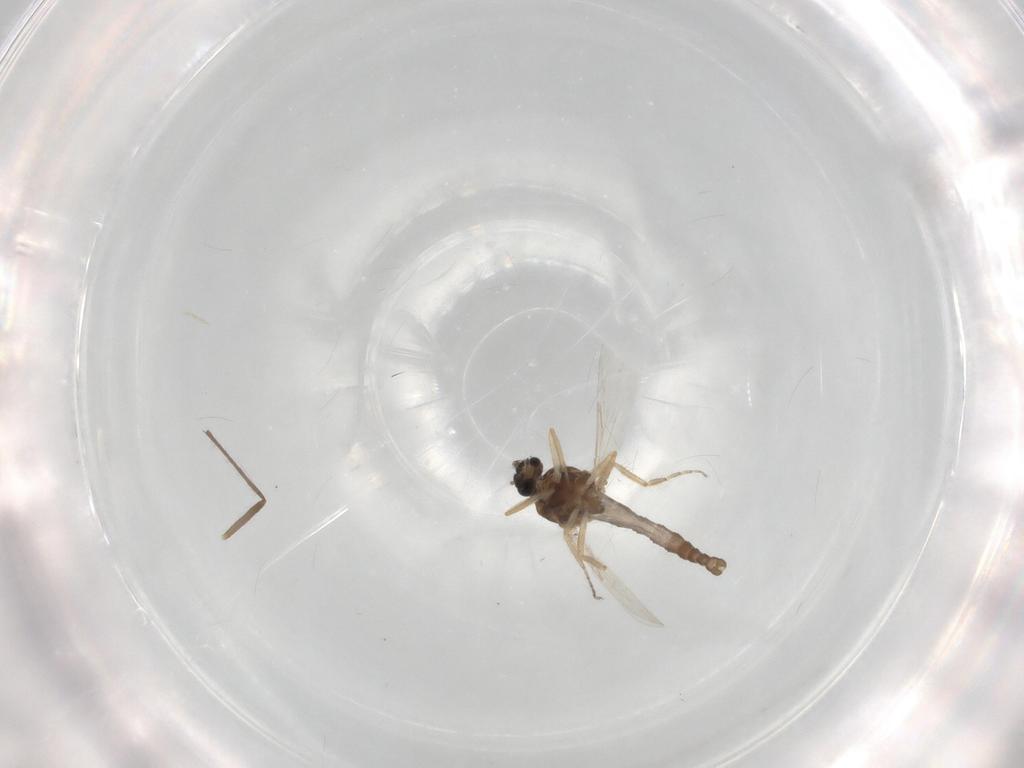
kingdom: Animalia
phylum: Arthropoda
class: Insecta
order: Diptera
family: Ceratopogonidae
